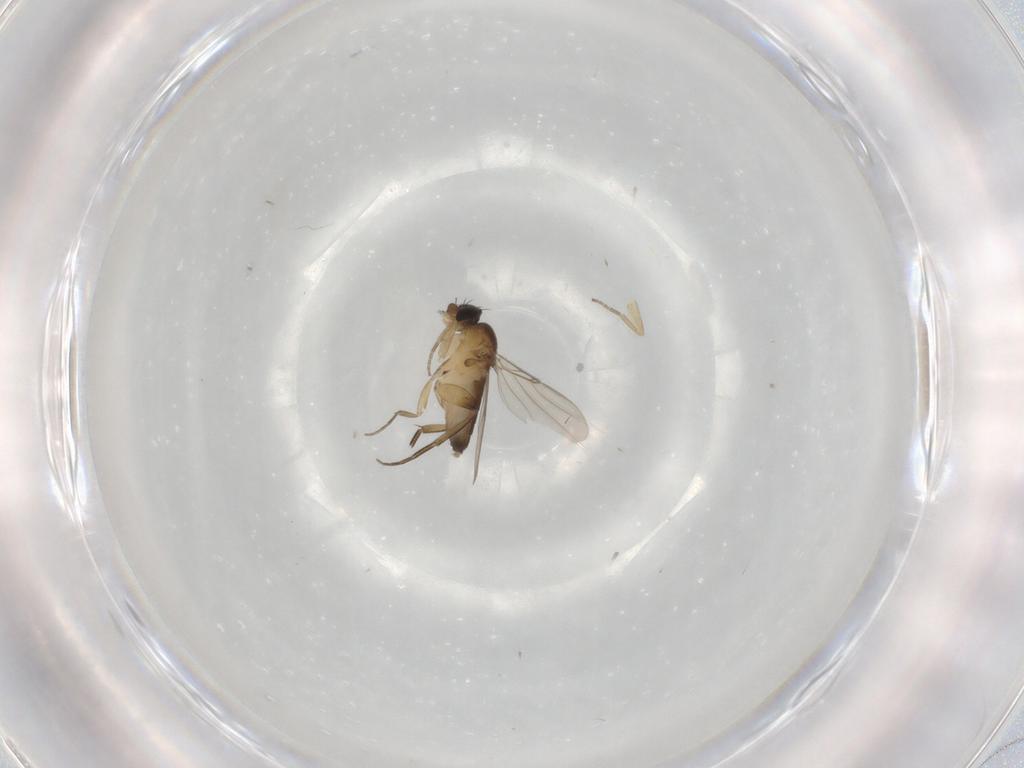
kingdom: Animalia
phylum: Arthropoda
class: Insecta
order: Diptera
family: Phoridae
